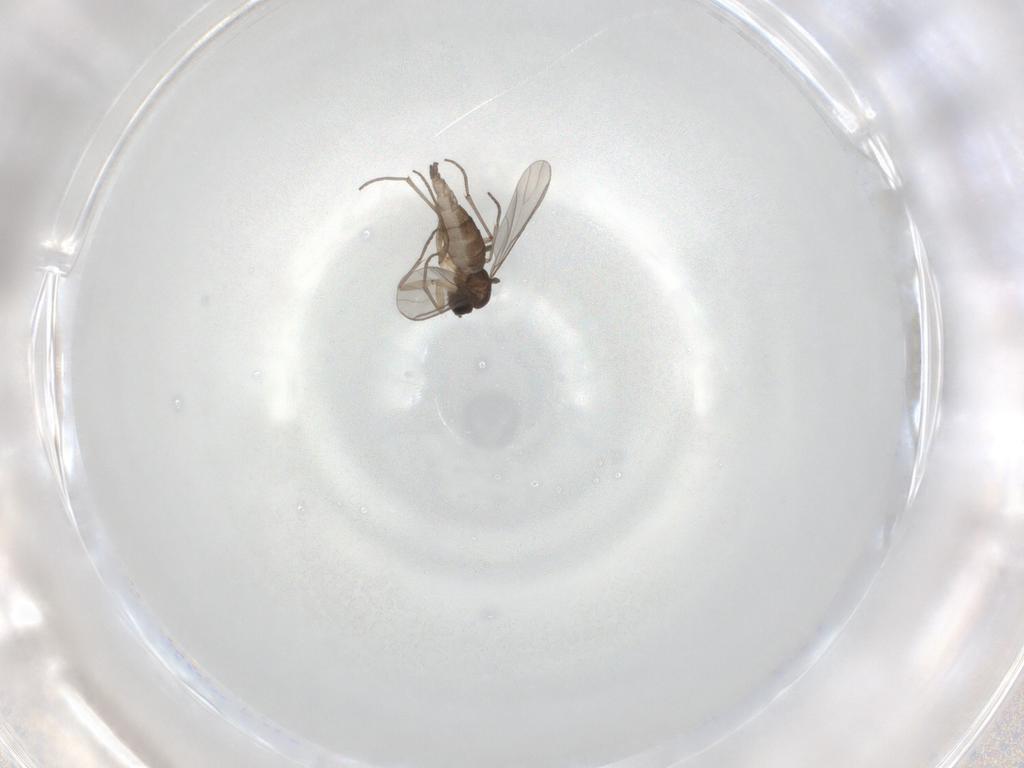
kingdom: Animalia
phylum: Arthropoda
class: Insecta
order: Diptera
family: Sciaridae
